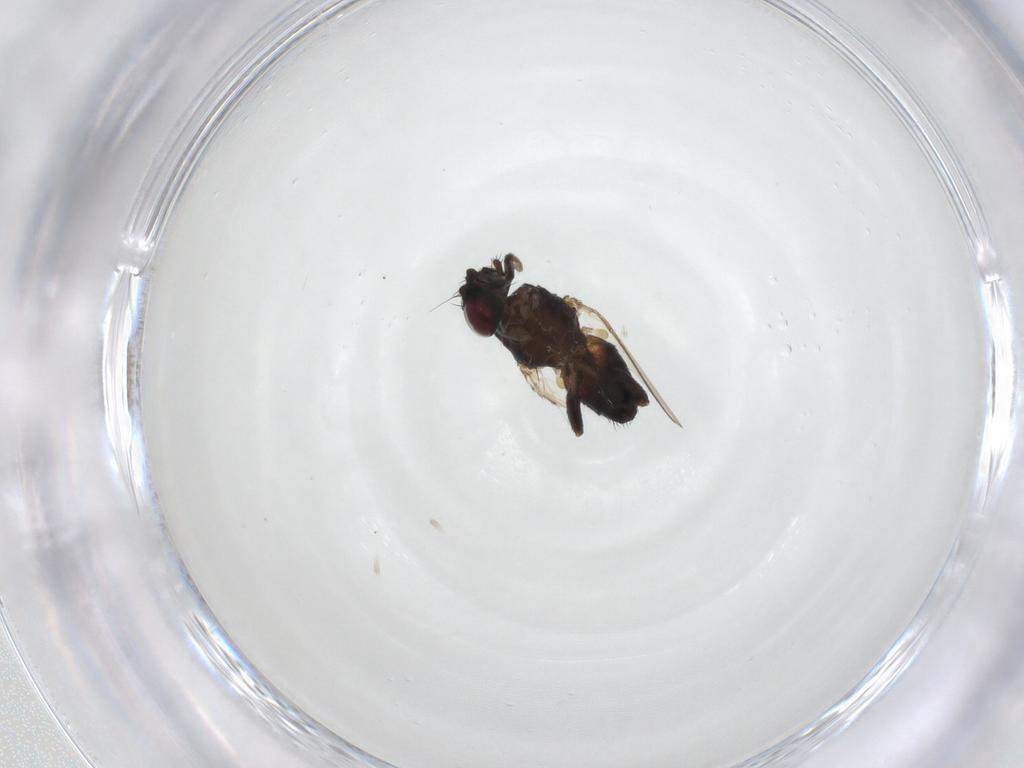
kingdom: Animalia
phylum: Arthropoda
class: Insecta
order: Diptera
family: Milichiidae
